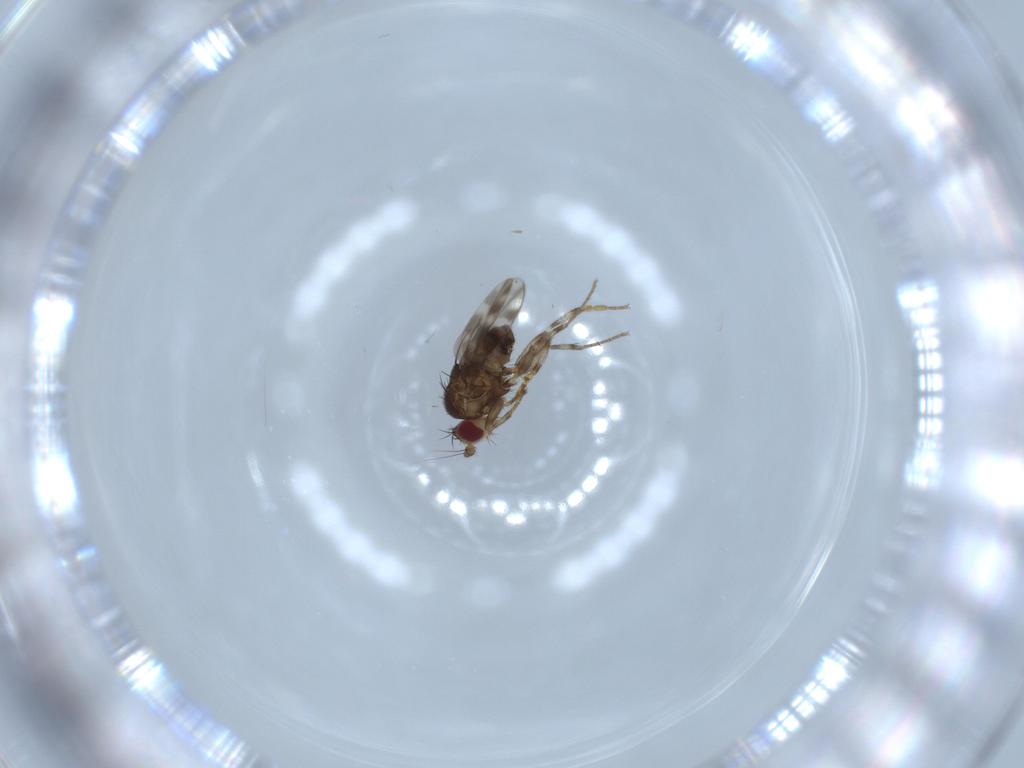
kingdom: Animalia
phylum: Arthropoda
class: Insecta
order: Diptera
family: Sphaeroceridae
